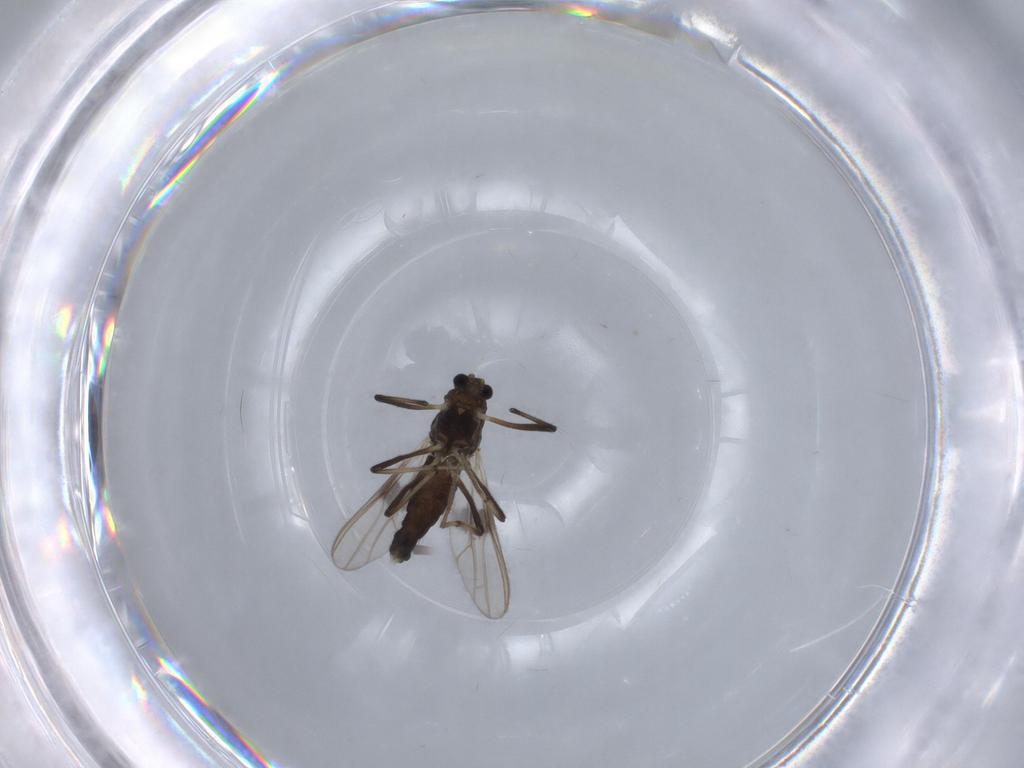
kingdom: Animalia
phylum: Arthropoda
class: Insecta
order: Diptera
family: Chironomidae
